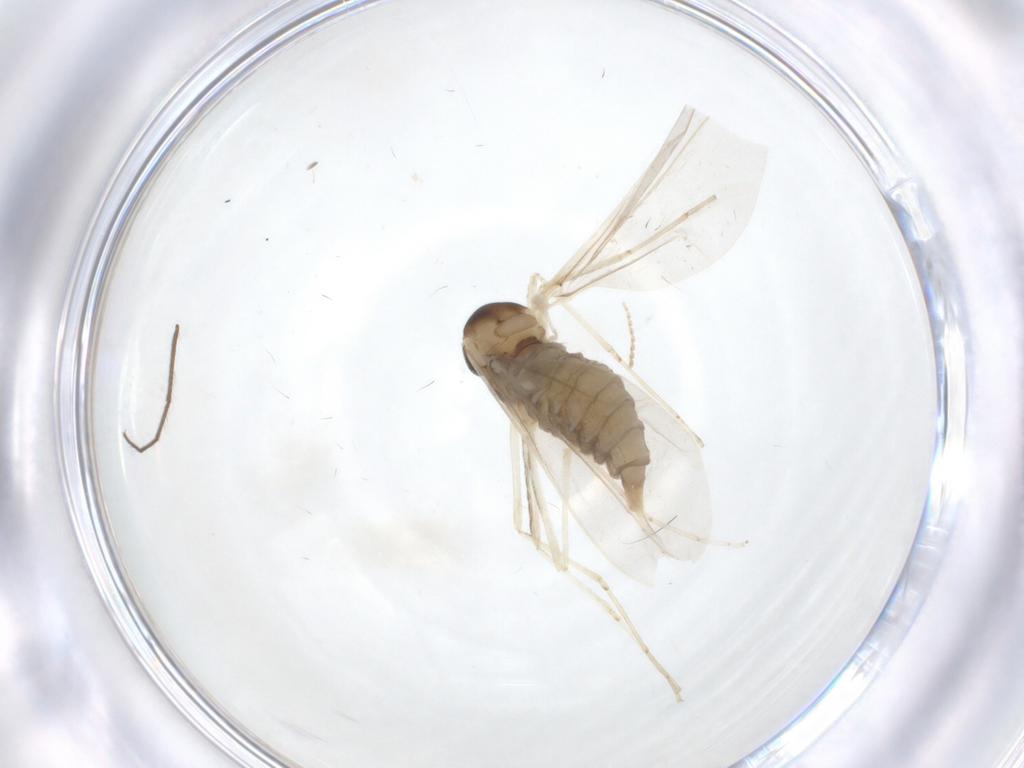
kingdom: Animalia
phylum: Arthropoda
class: Insecta
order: Diptera
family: Cecidomyiidae
